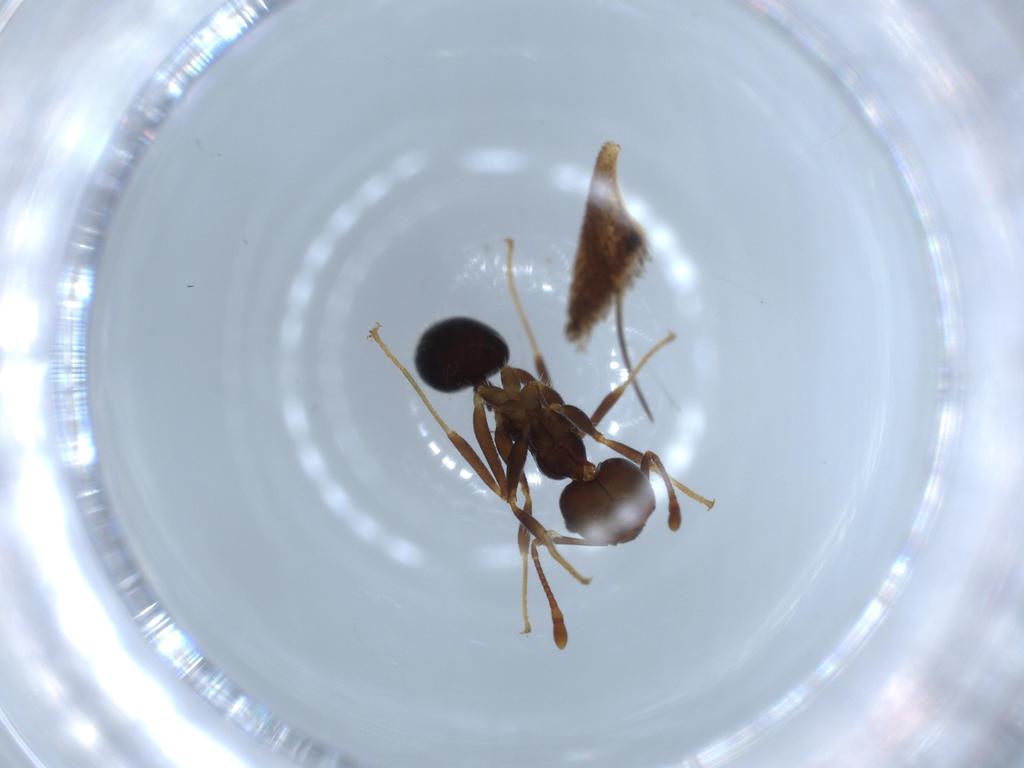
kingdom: Animalia
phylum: Arthropoda
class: Insecta
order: Hymenoptera
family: Formicidae
